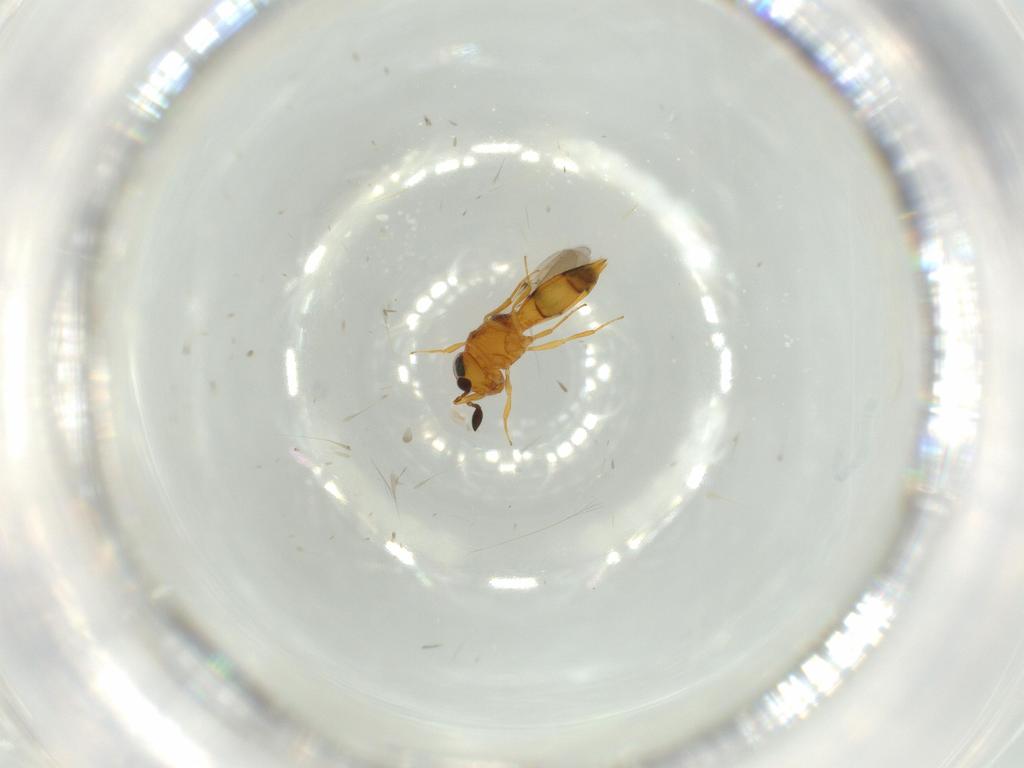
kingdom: Animalia
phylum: Arthropoda
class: Insecta
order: Hymenoptera
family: Scelionidae
